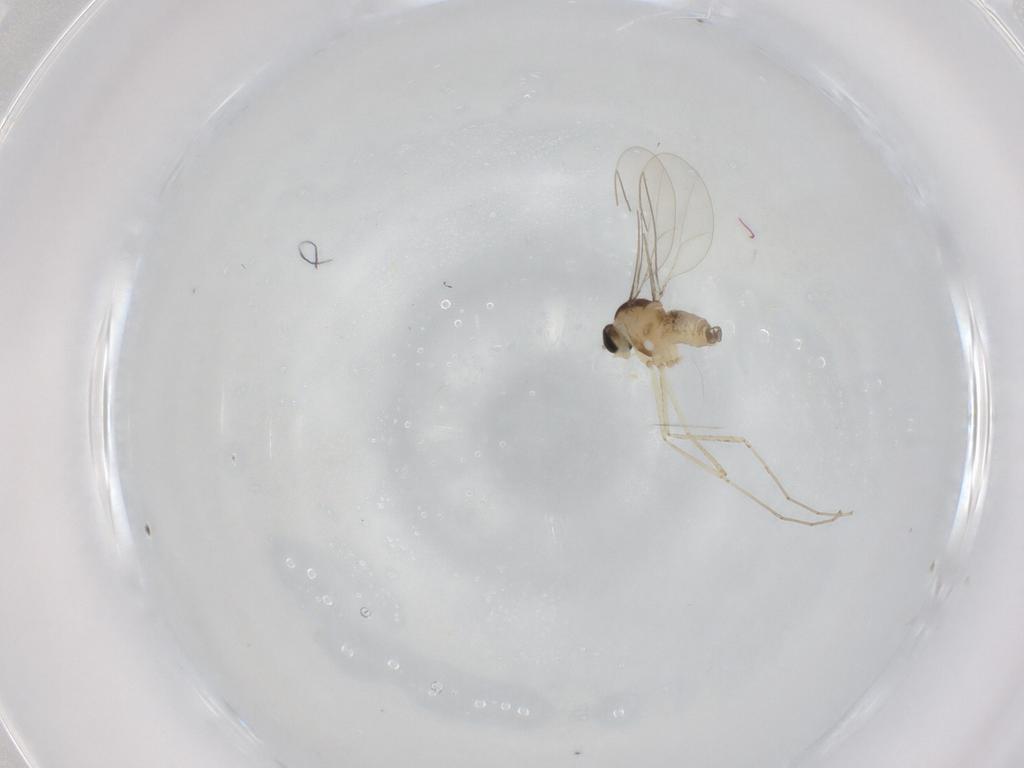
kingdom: Animalia
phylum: Arthropoda
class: Insecta
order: Diptera
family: Cecidomyiidae
